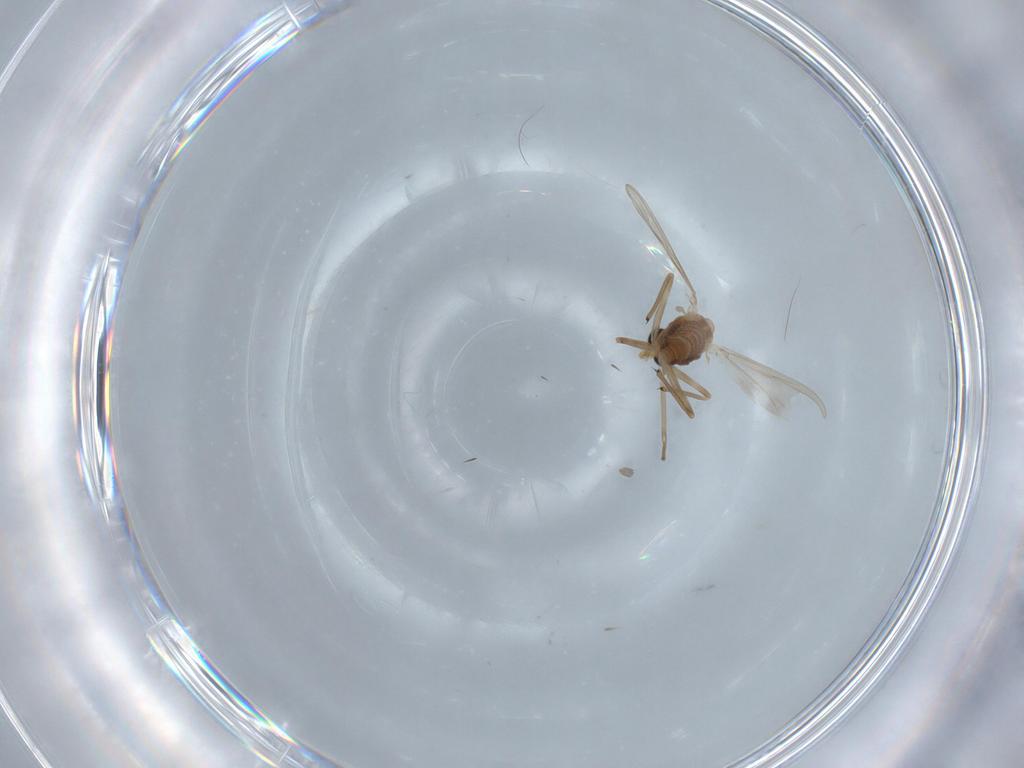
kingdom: Animalia
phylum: Arthropoda
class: Insecta
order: Diptera
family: Chironomidae
